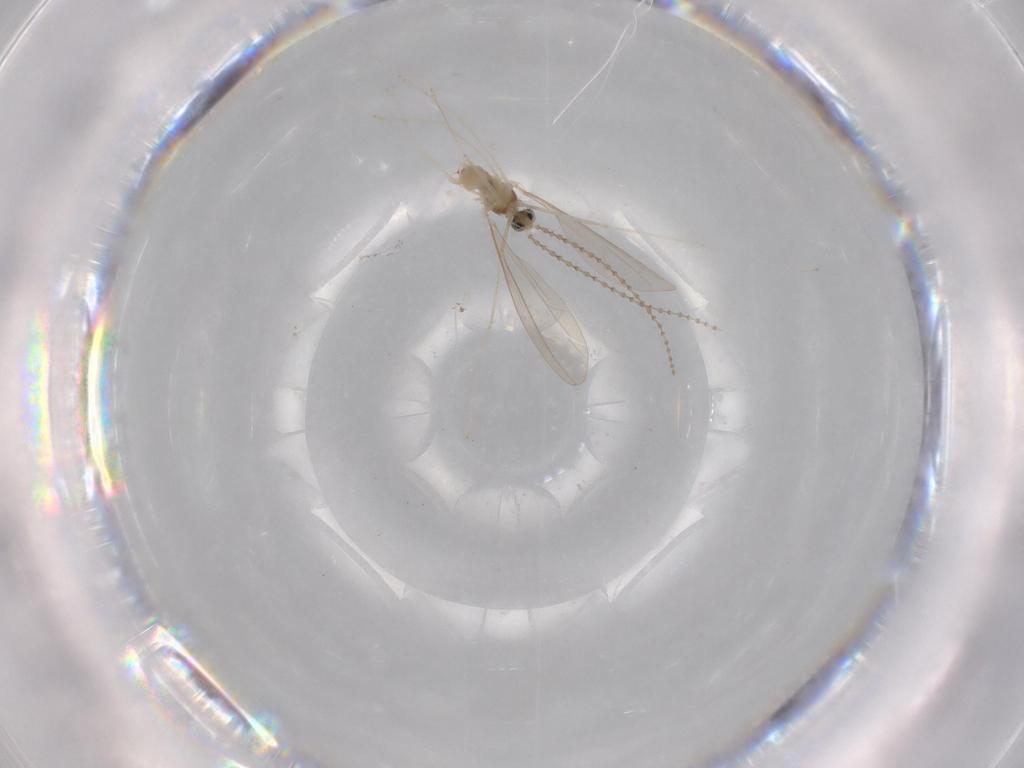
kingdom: Animalia
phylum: Arthropoda
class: Insecta
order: Diptera
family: Cecidomyiidae
